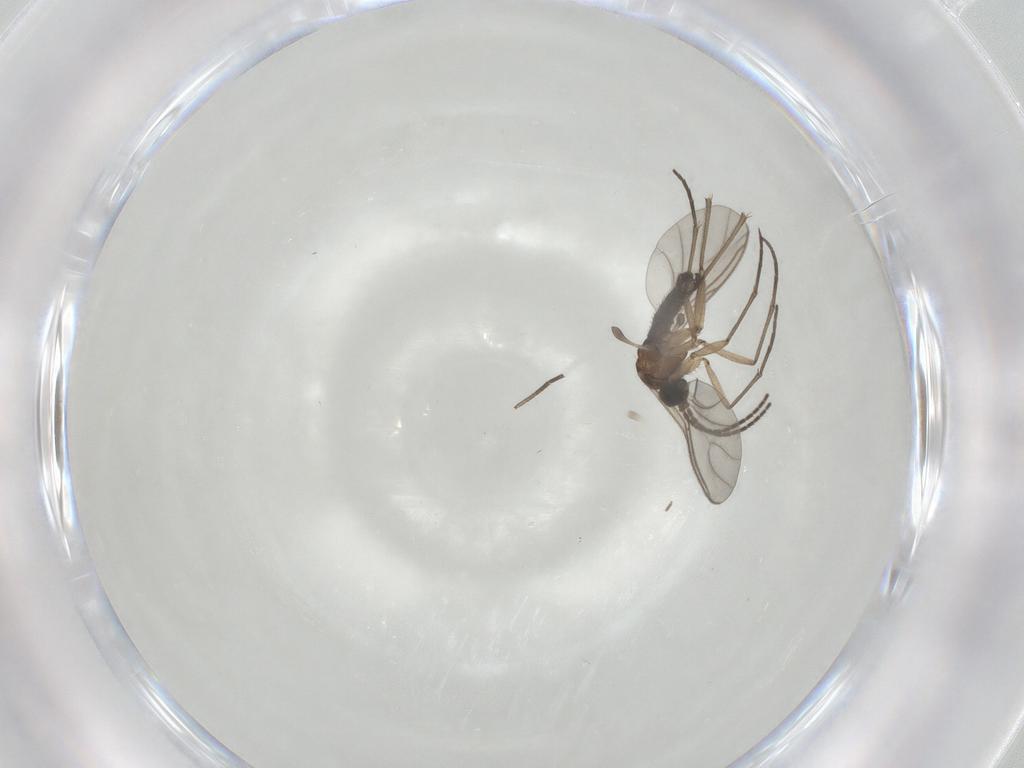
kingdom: Animalia
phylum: Arthropoda
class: Insecta
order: Diptera
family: Sciaridae
